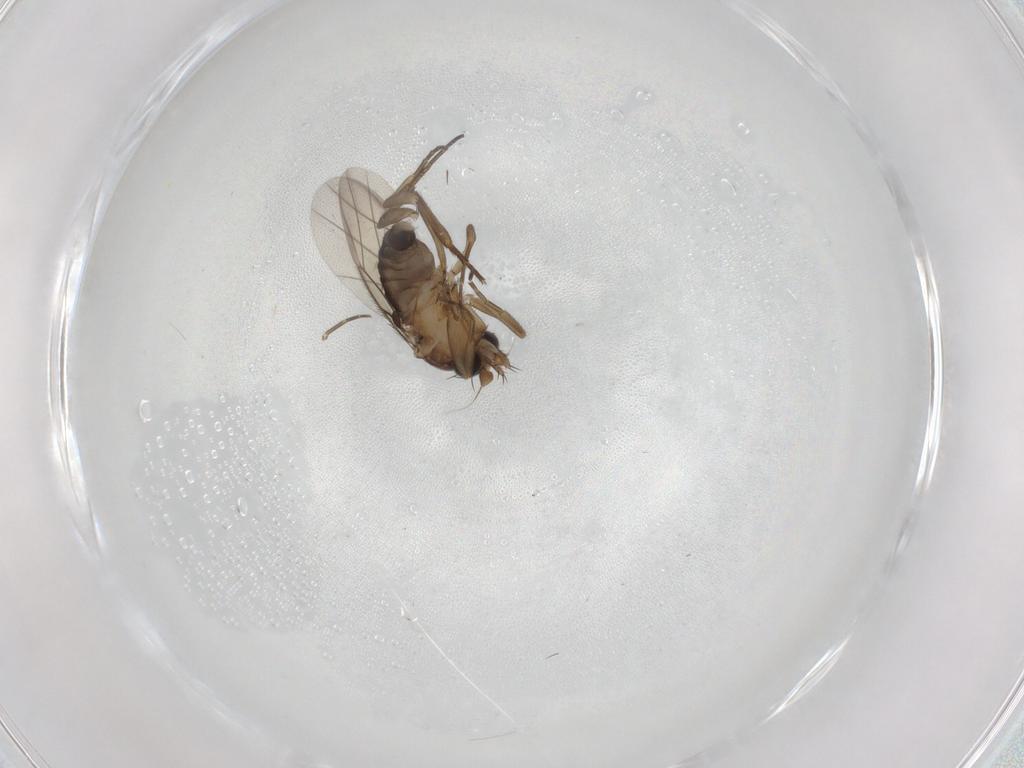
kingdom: Animalia
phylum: Arthropoda
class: Insecta
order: Diptera
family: Phoridae
